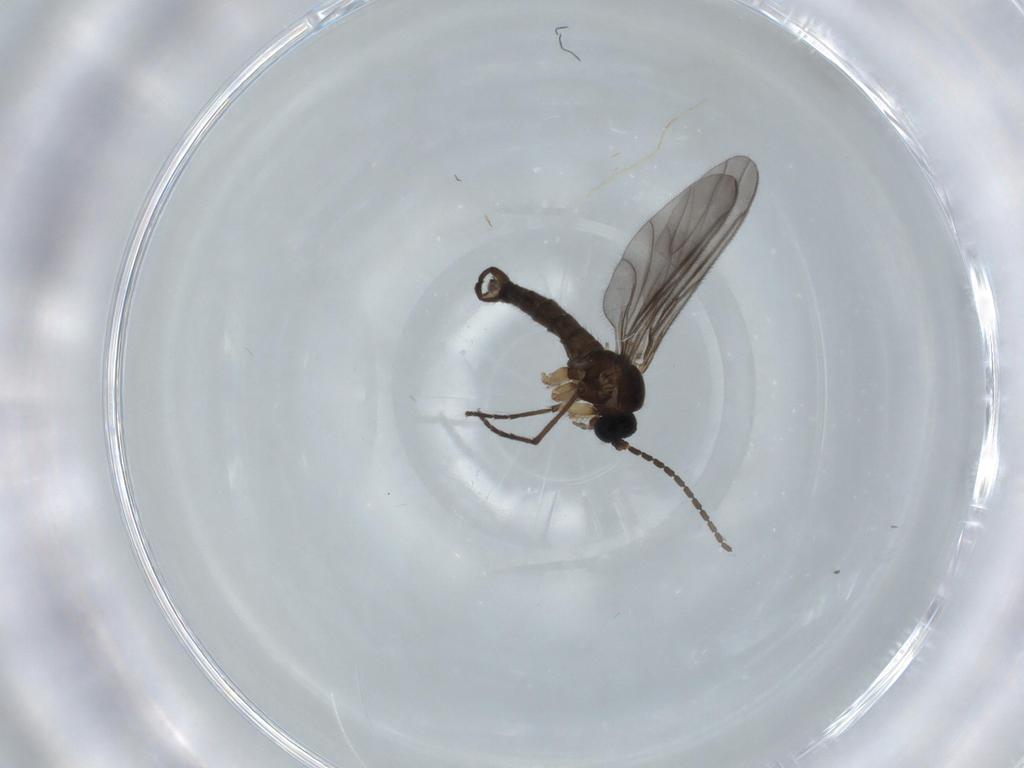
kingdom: Animalia
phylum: Arthropoda
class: Insecta
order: Diptera
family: Sciaridae
